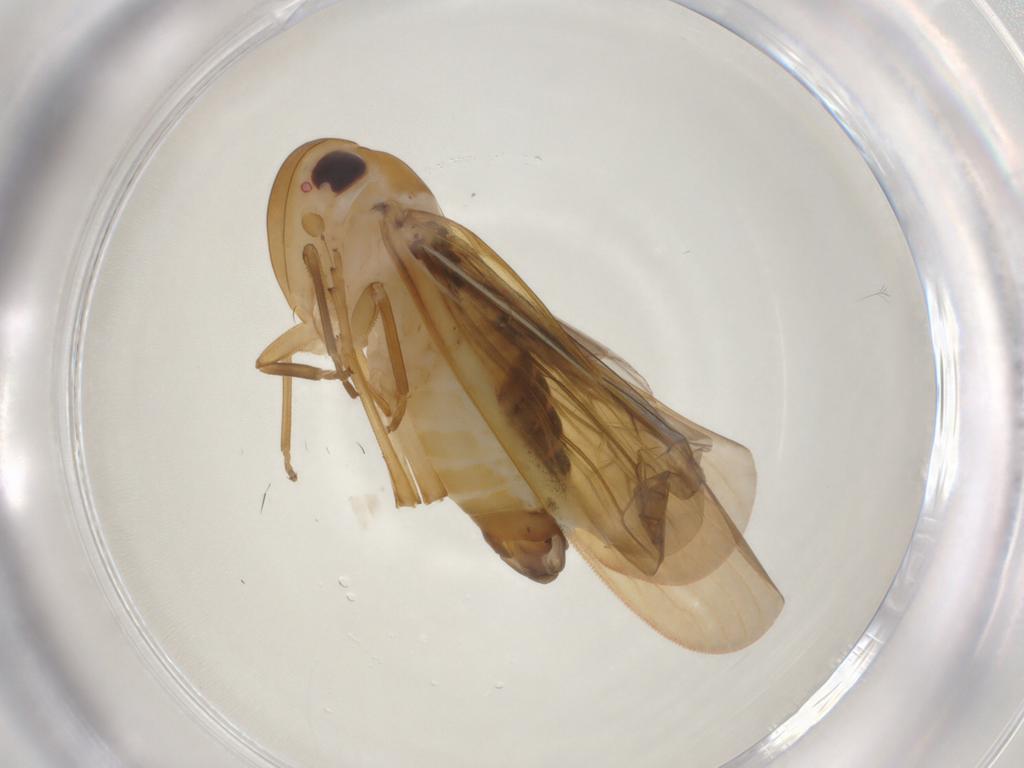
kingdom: Animalia
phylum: Arthropoda
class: Insecta
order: Hemiptera
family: Achilidae
